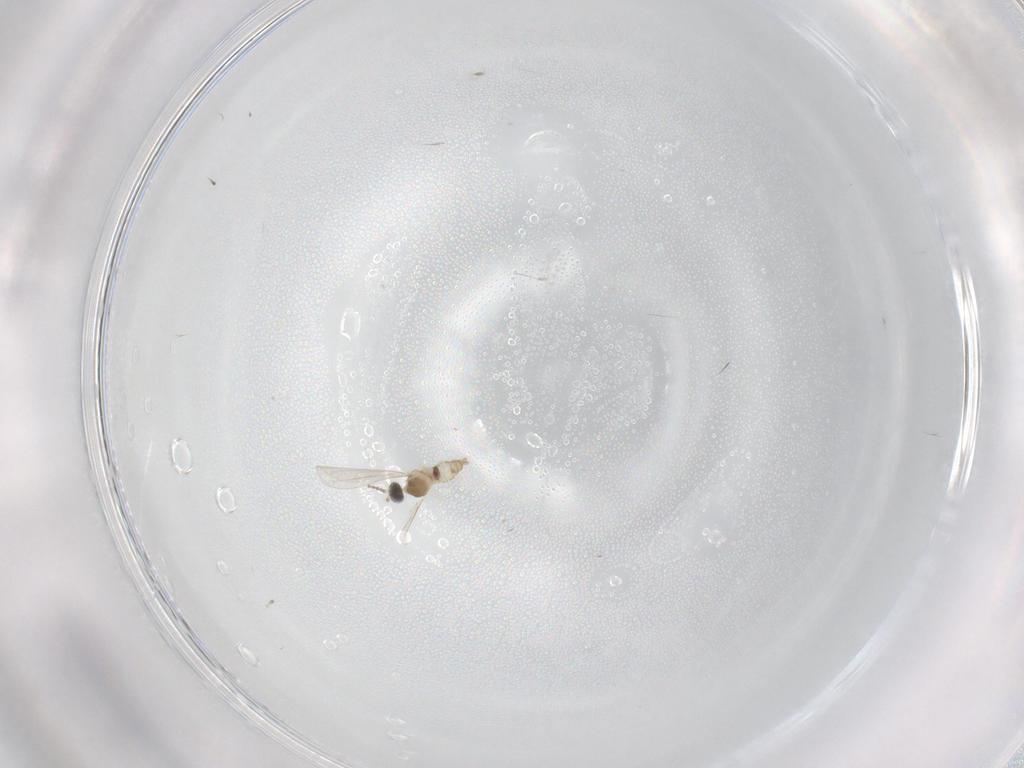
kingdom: Animalia
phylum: Arthropoda
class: Insecta
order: Diptera
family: Cecidomyiidae
